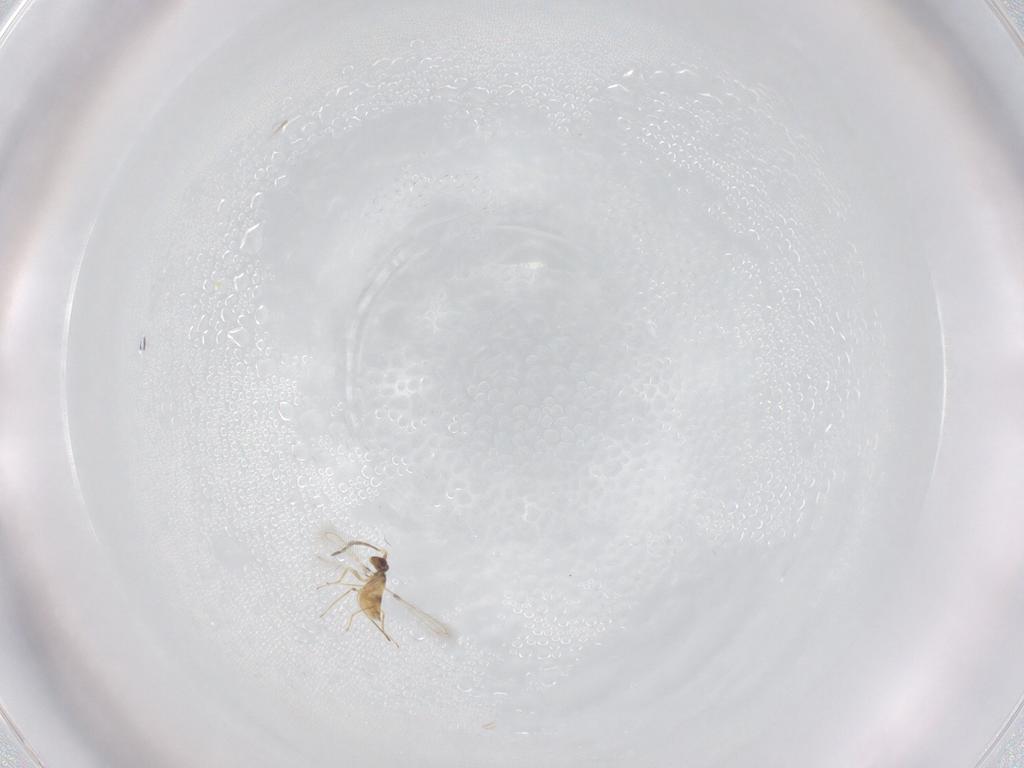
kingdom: Animalia
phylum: Arthropoda
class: Insecta
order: Hymenoptera
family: Mymaridae
